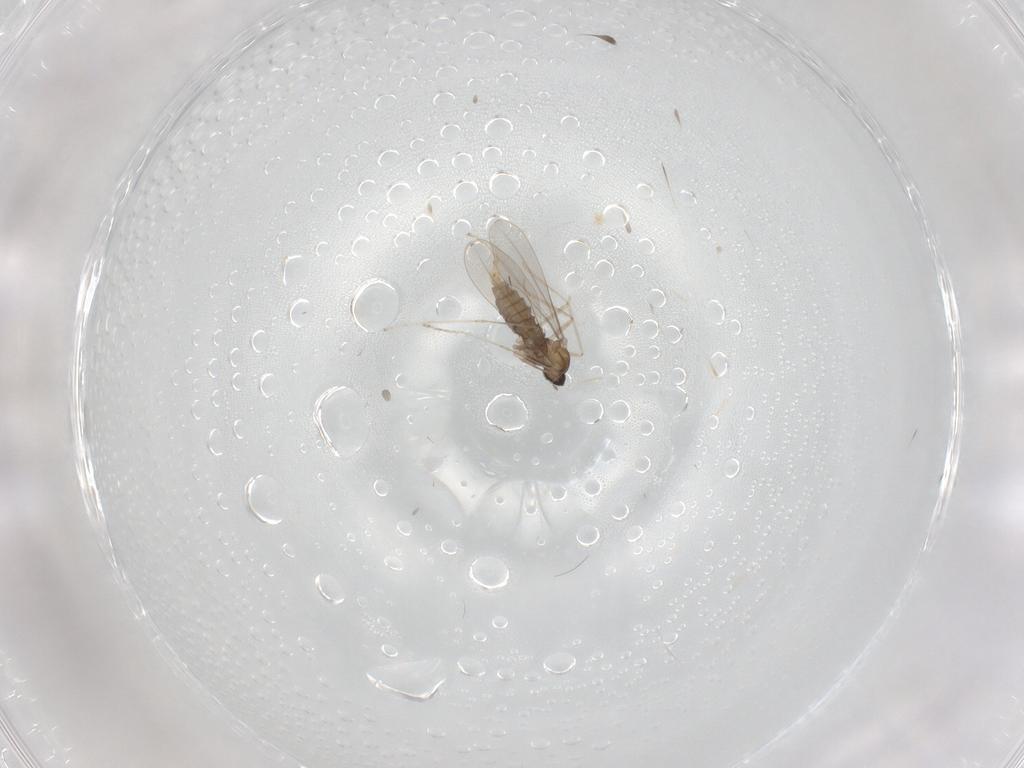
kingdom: Animalia
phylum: Arthropoda
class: Insecta
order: Diptera
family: Cecidomyiidae
